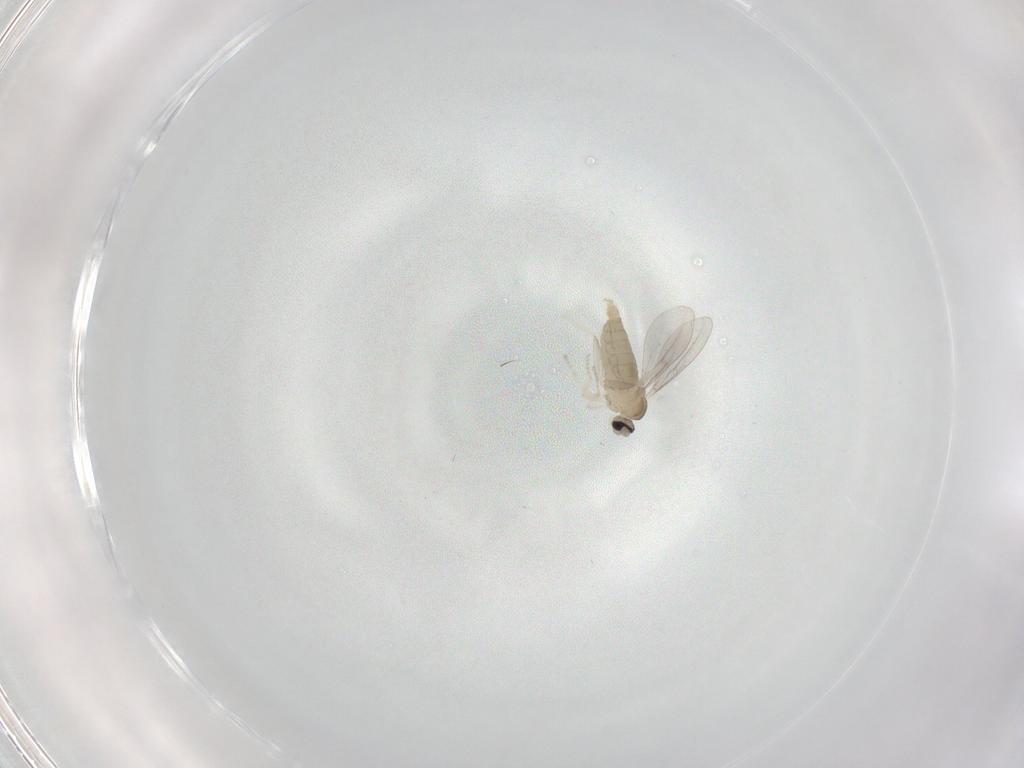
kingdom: Animalia
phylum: Arthropoda
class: Insecta
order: Diptera
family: Cecidomyiidae
